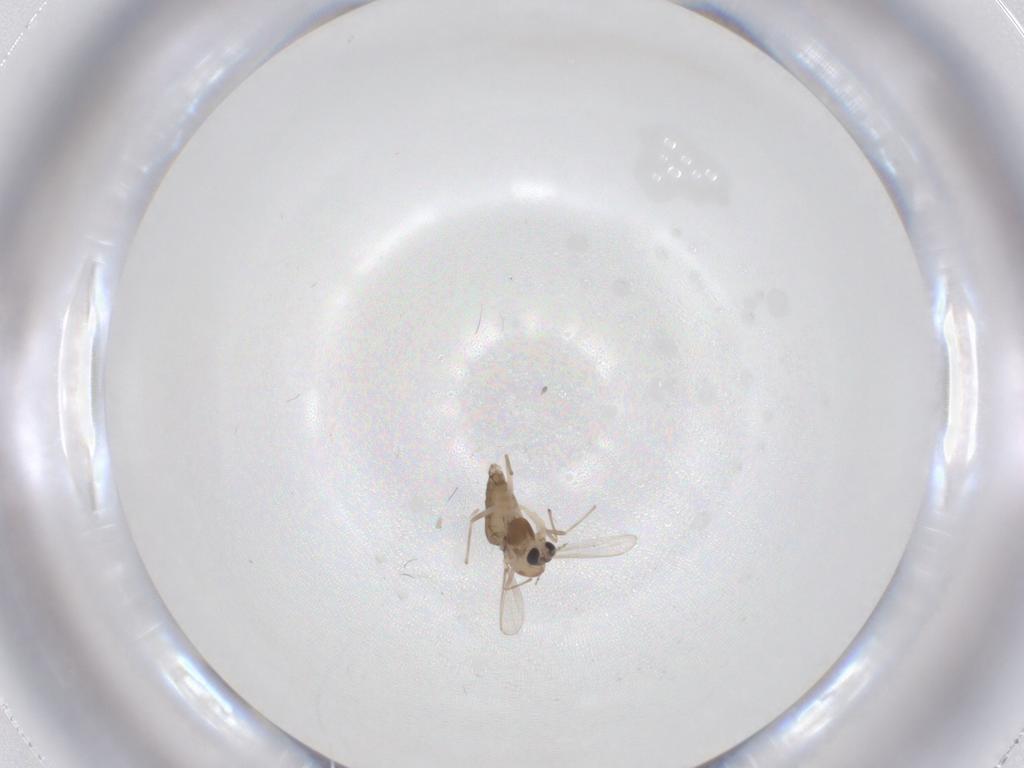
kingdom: Animalia
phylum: Arthropoda
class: Insecta
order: Diptera
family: Chironomidae
